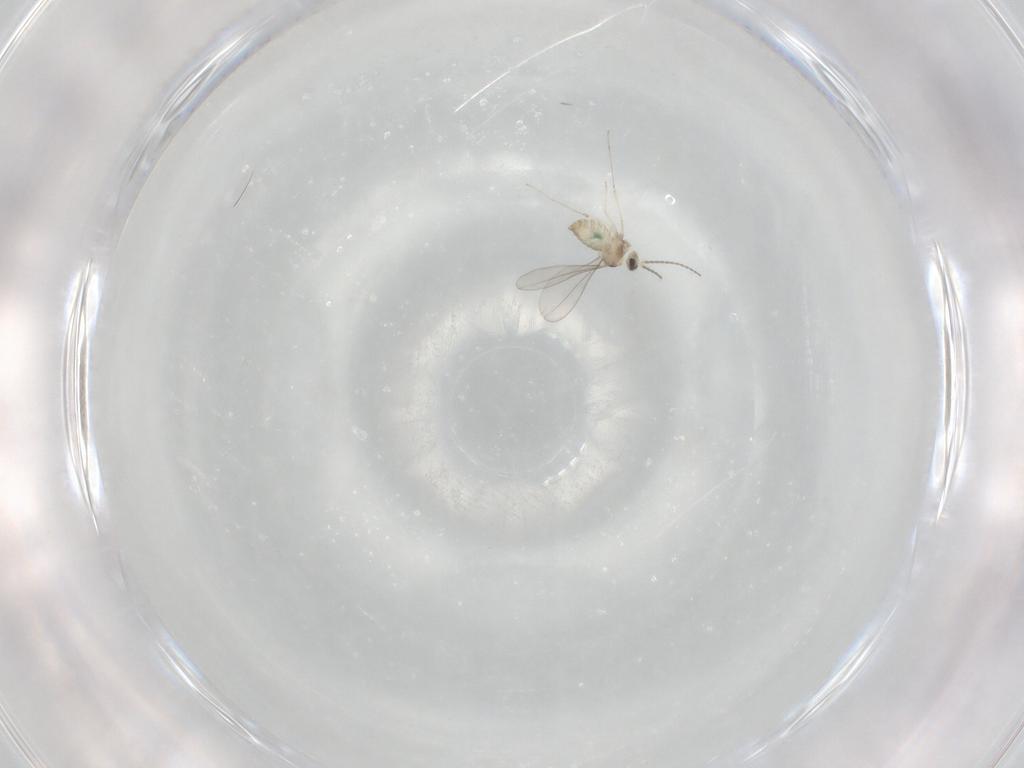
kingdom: Animalia
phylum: Arthropoda
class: Insecta
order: Diptera
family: Cecidomyiidae
